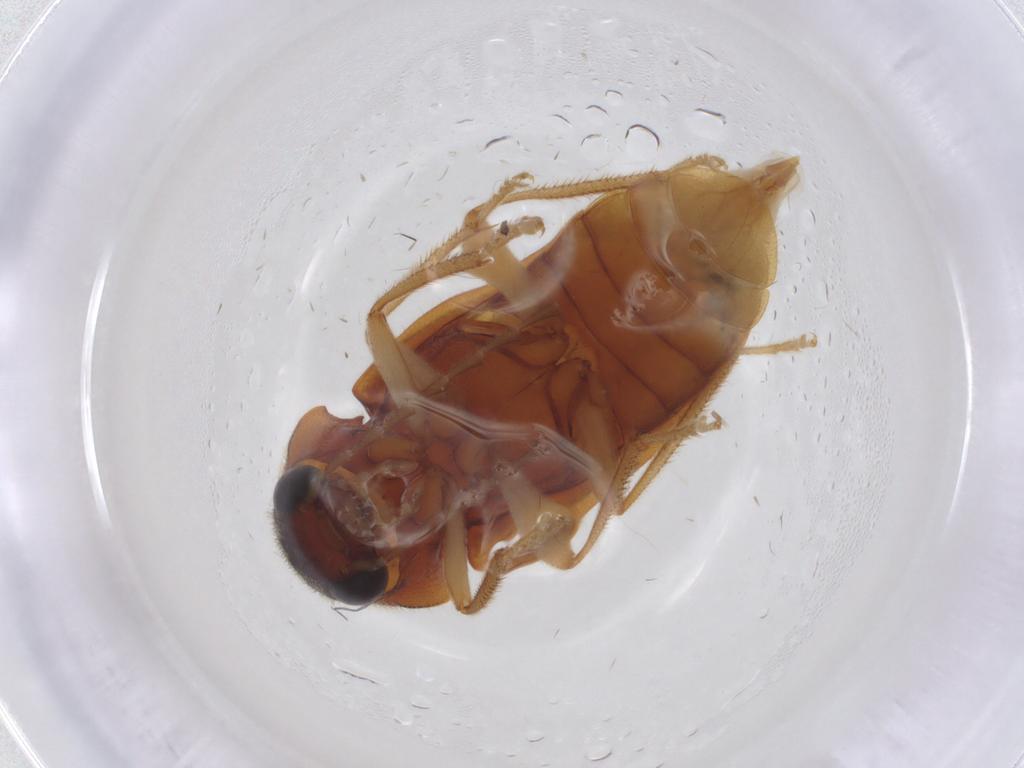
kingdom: Animalia
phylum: Arthropoda
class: Insecta
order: Coleoptera
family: Ptilodactylidae
